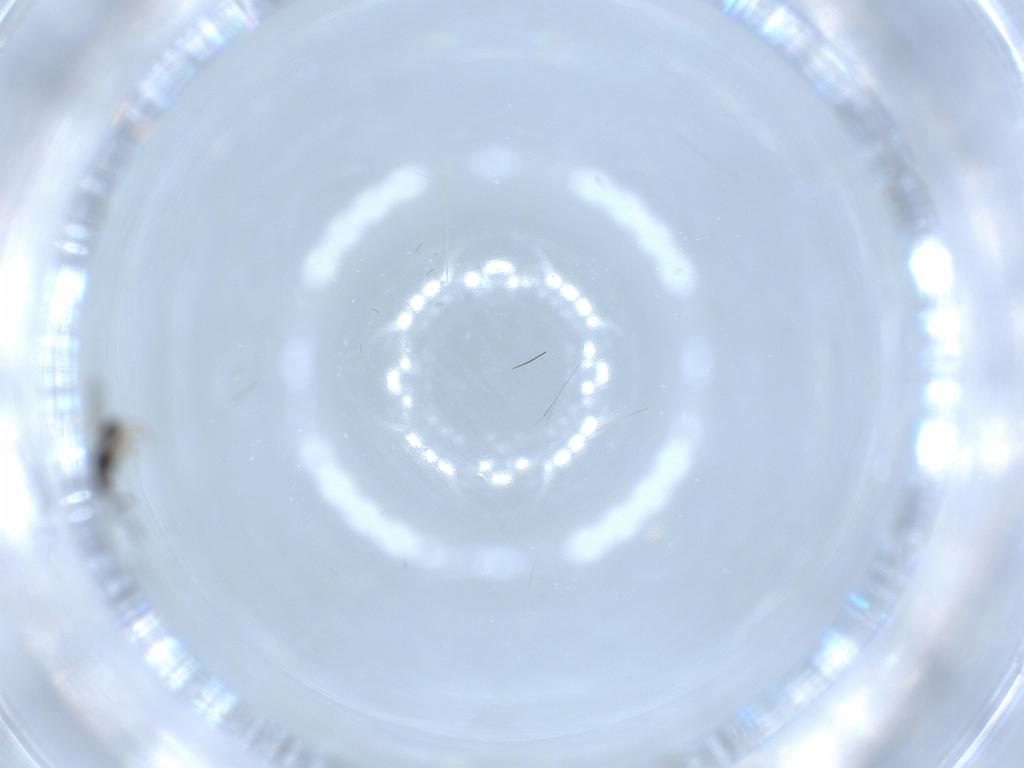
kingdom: Animalia
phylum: Arthropoda
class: Insecta
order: Hymenoptera
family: Scelionidae
